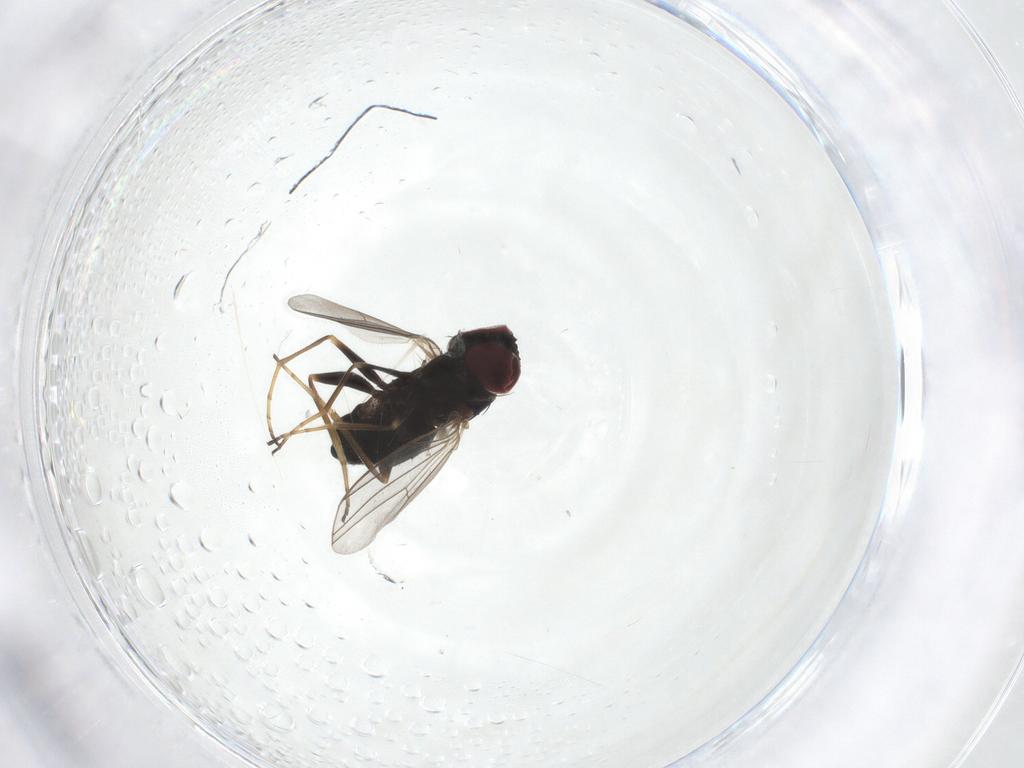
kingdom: Animalia
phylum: Arthropoda
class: Insecta
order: Diptera
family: Dolichopodidae
